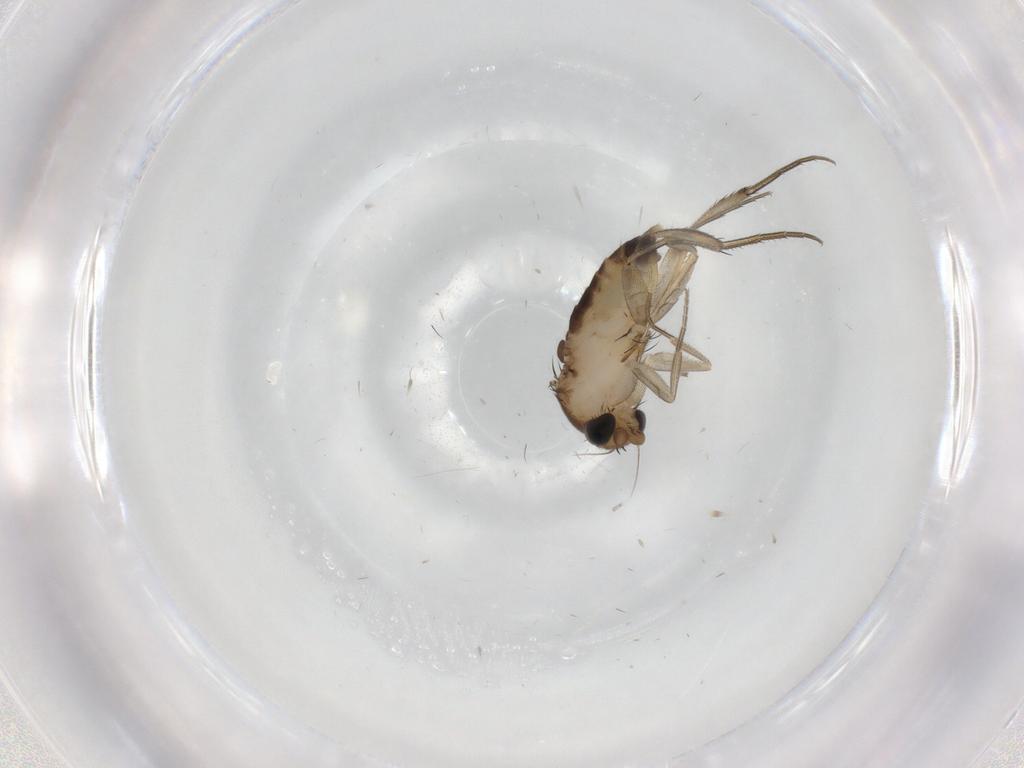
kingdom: Animalia
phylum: Arthropoda
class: Insecta
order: Diptera
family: Phoridae
